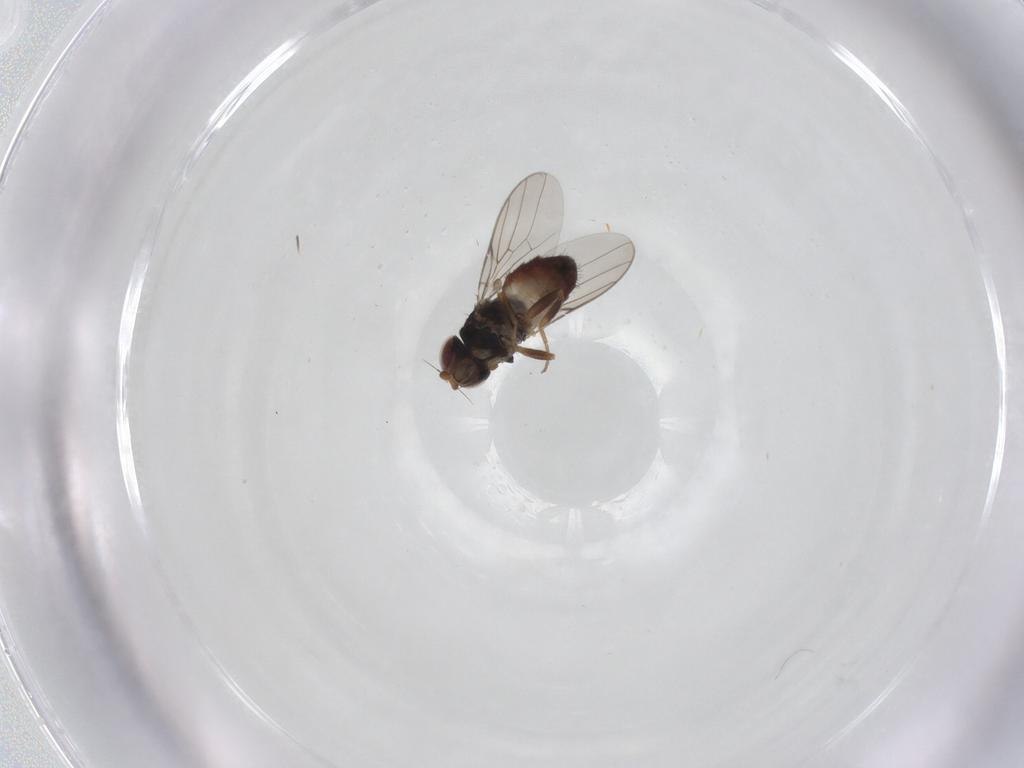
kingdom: Animalia
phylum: Arthropoda
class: Insecta
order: Diptera
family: Chloropidae
